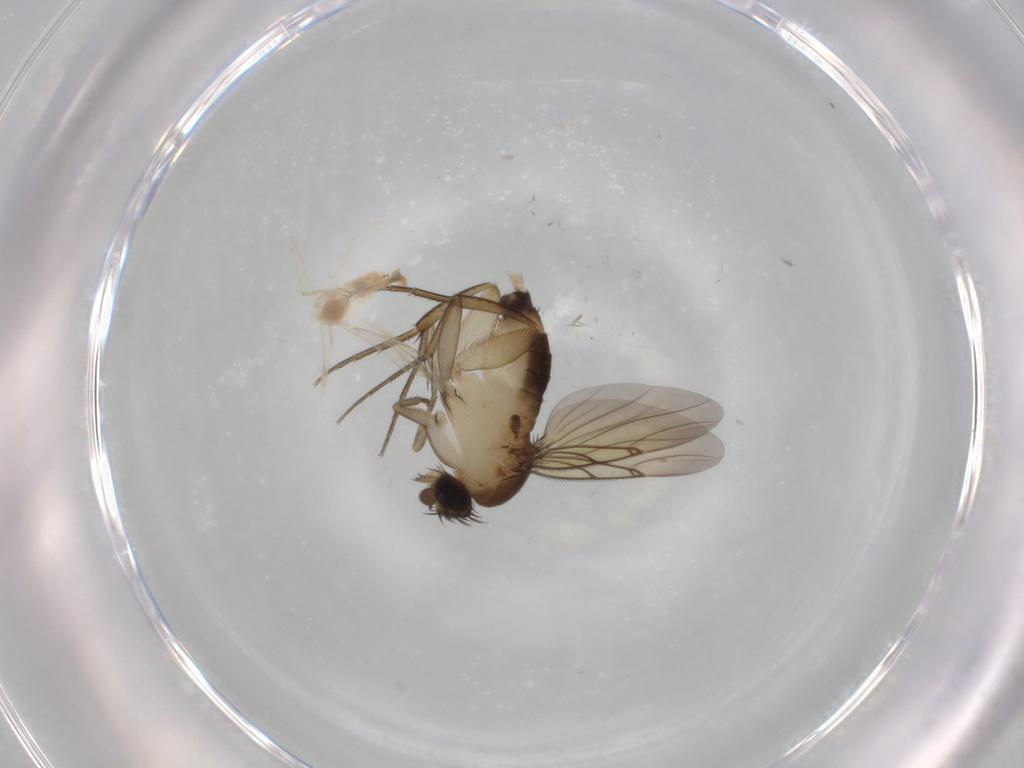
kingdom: Animalia
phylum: Arthropoda
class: Insecta
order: Diptera
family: Phoridae
